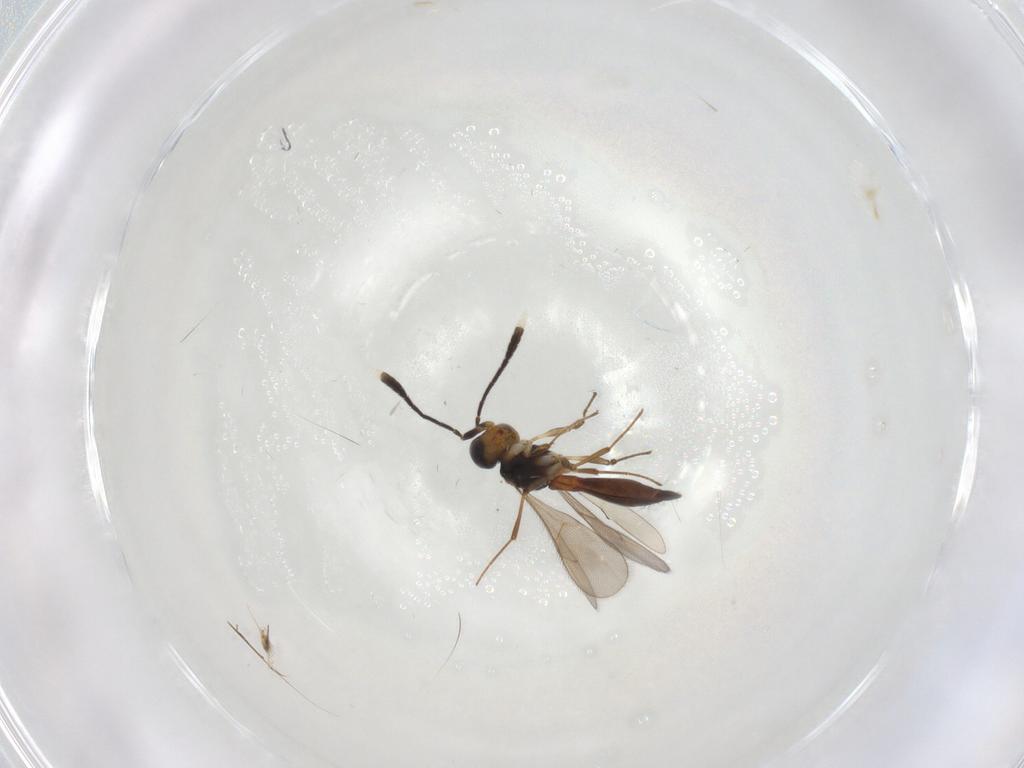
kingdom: Animalia
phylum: Arthropoda
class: Insecta
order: Hymenoptera
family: Scelionidae
